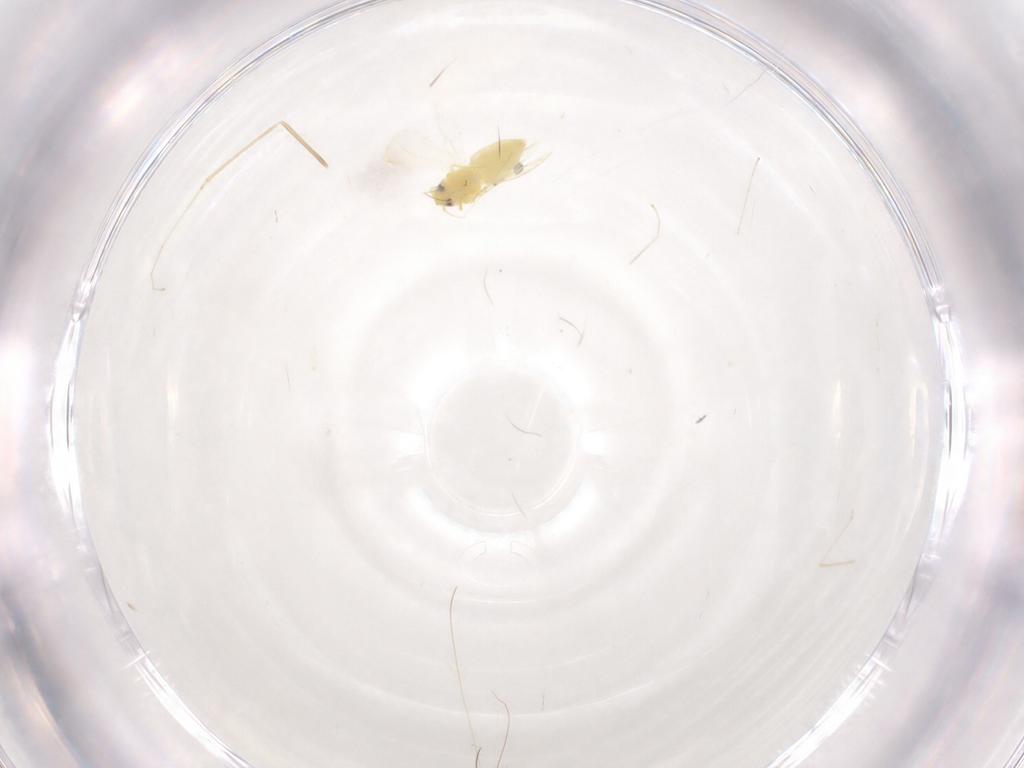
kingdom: Animalia
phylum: Arthropoda
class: Insecta
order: Hemiptera
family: Aleyrodidae
